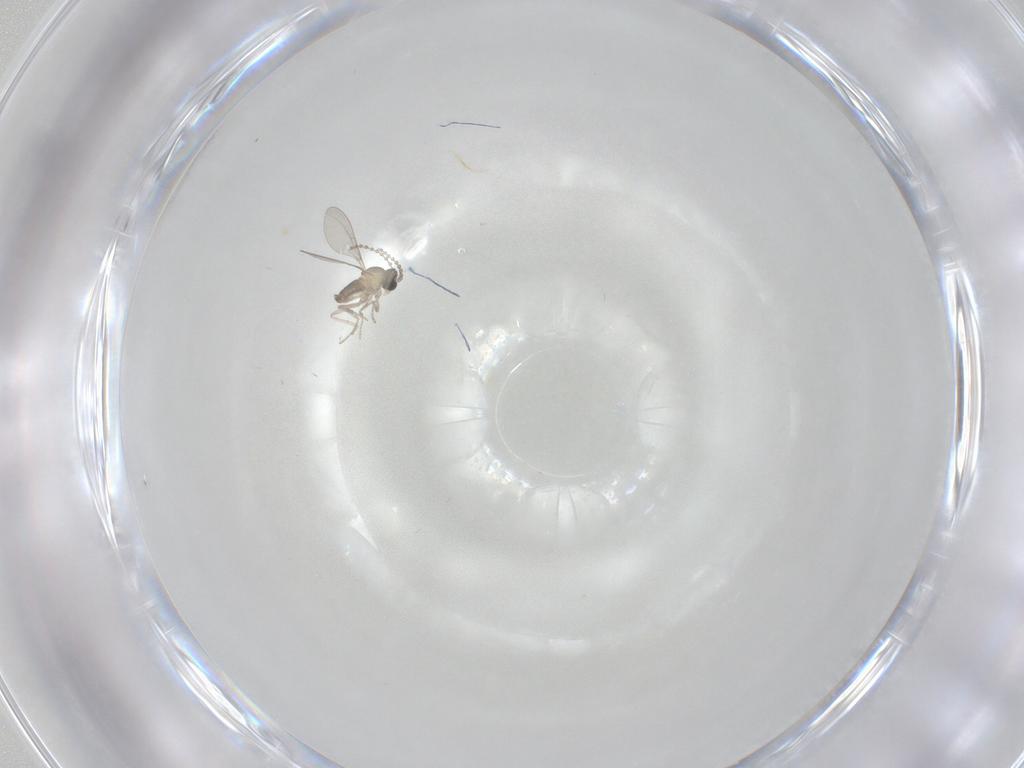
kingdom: Animalia
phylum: Arthropoda
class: Insecta
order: Diptera
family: Cecidomyiidae
